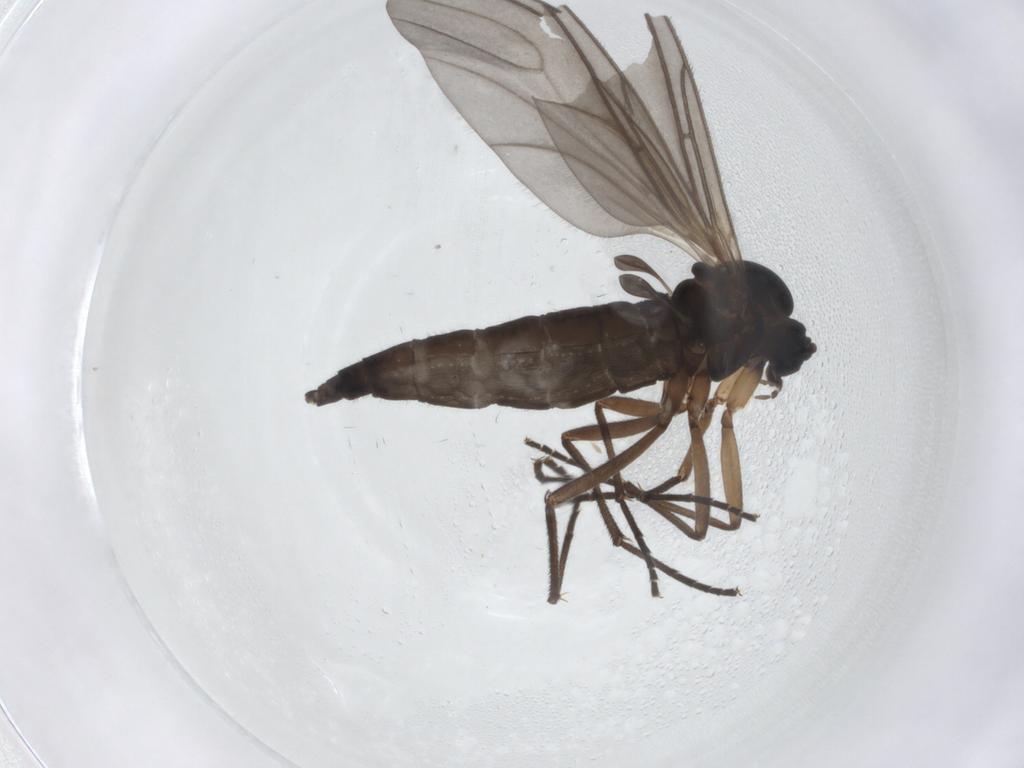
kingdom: Animalia
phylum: Arthropoda
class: Insecta
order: Diptera
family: Sciaridae
